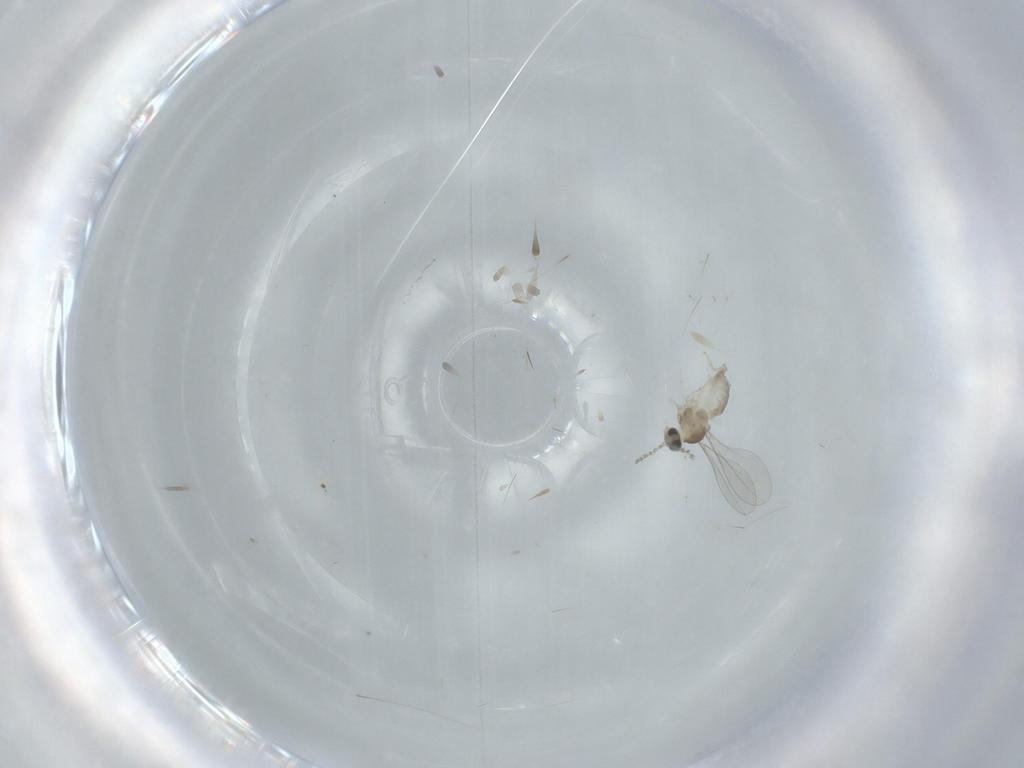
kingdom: Animalia
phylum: Arthropoda
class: Insecta
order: Diptera
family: Cecidomyiidae
